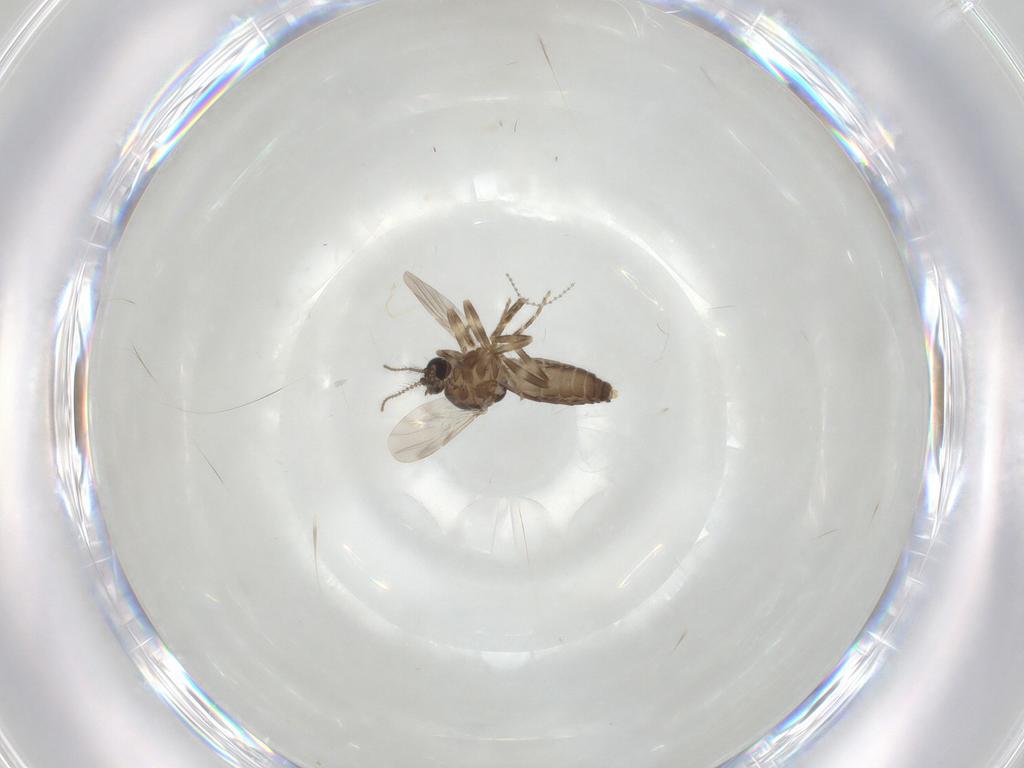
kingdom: Animalia
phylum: Arthropoda
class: Insecta
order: Diptera
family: Ceratopogonidae
